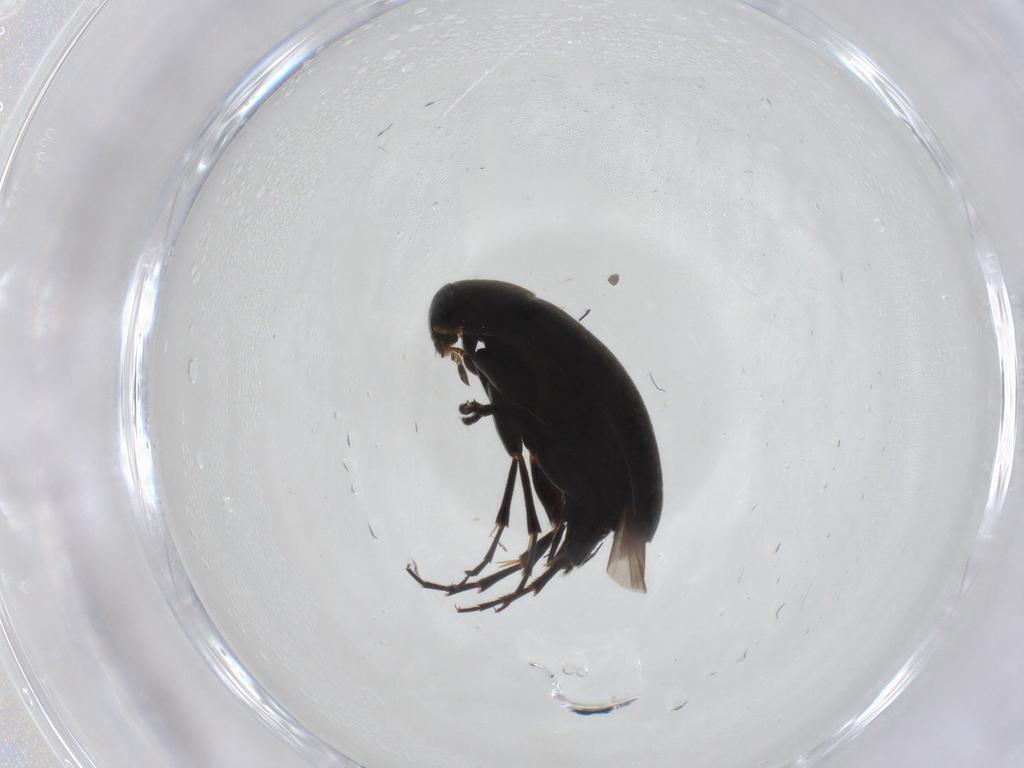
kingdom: Animalia
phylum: Arthropoda
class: Insecta
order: Coleoptera
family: Scraptiidae
